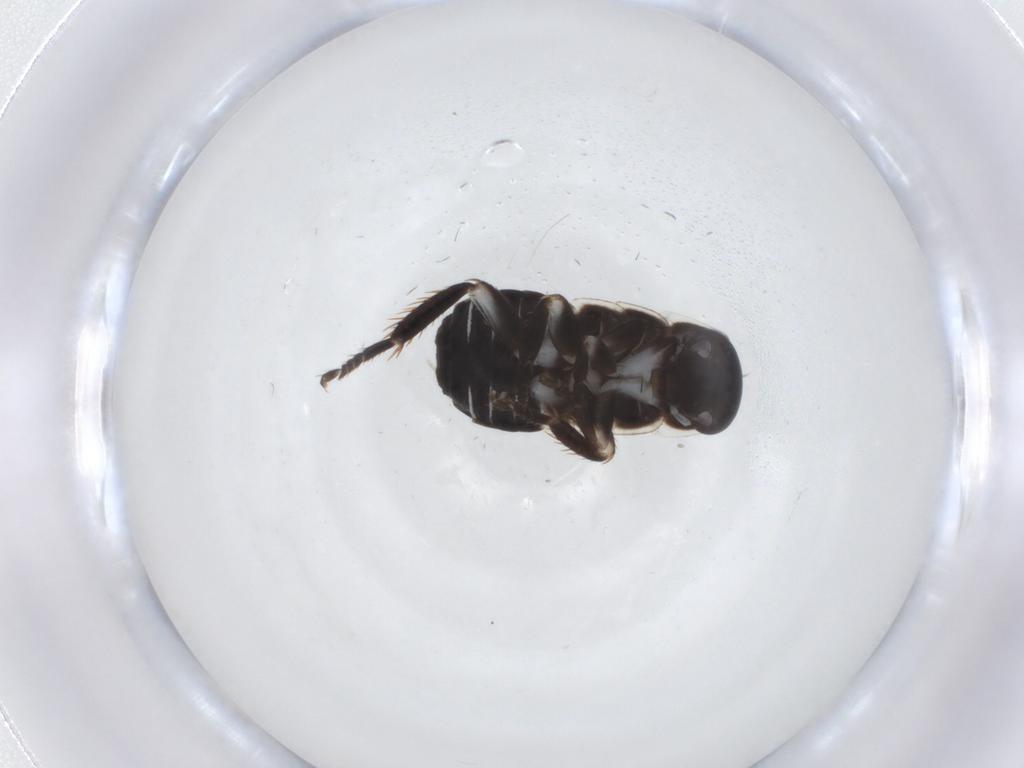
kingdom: Animalia
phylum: Arthropoda
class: Insecta
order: Blattodea
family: Ectobiidae
